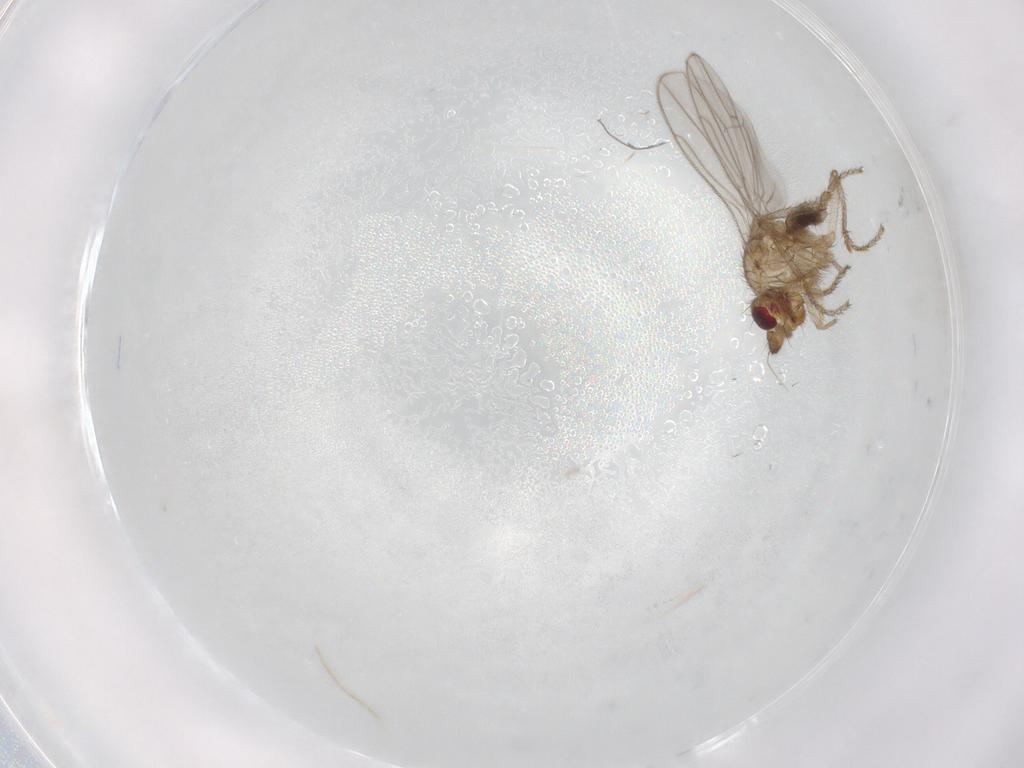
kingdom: Animalia
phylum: Arthropoda
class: Insecta
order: Diptera
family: Sphaeroceridae
